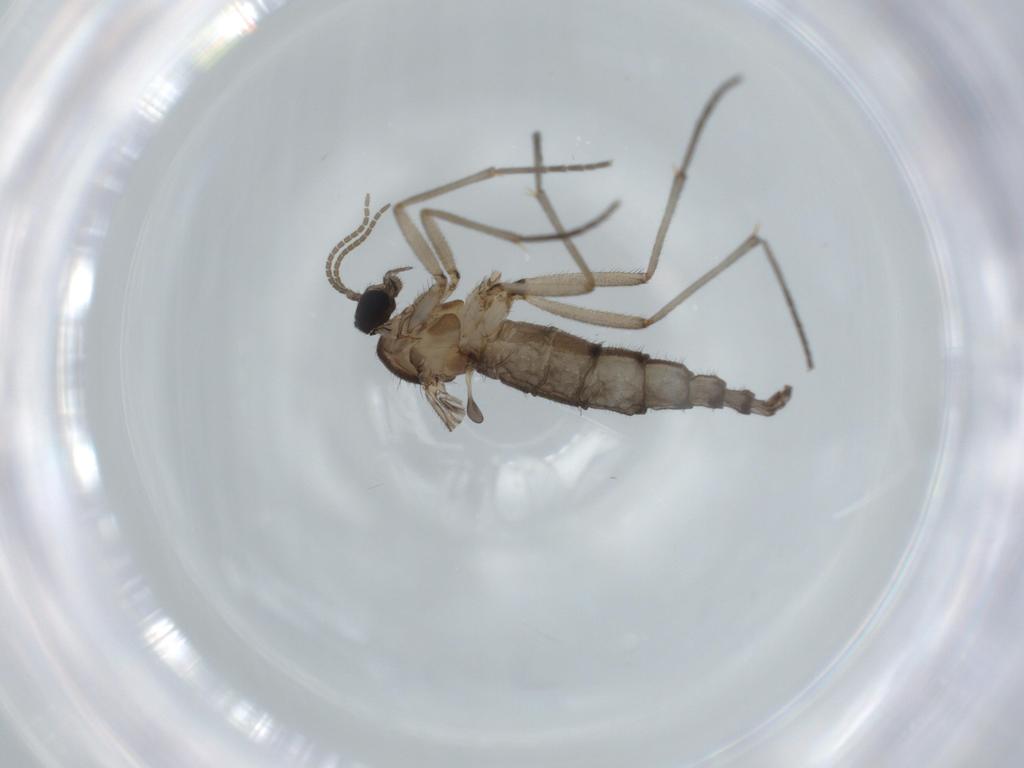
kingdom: Animalia
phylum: Arthropoda
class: Insecta
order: Diptera
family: Sciaridae
